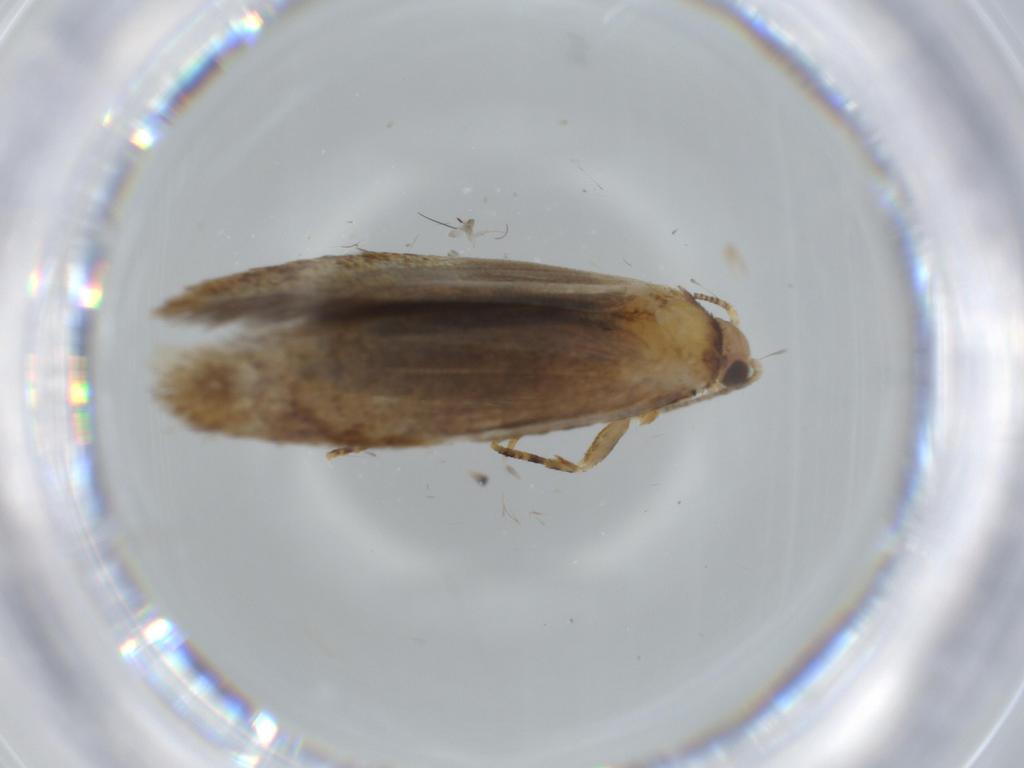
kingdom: Animalia
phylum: Arthropoda
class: Insecta
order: Lepidoptera
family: Tineidae
